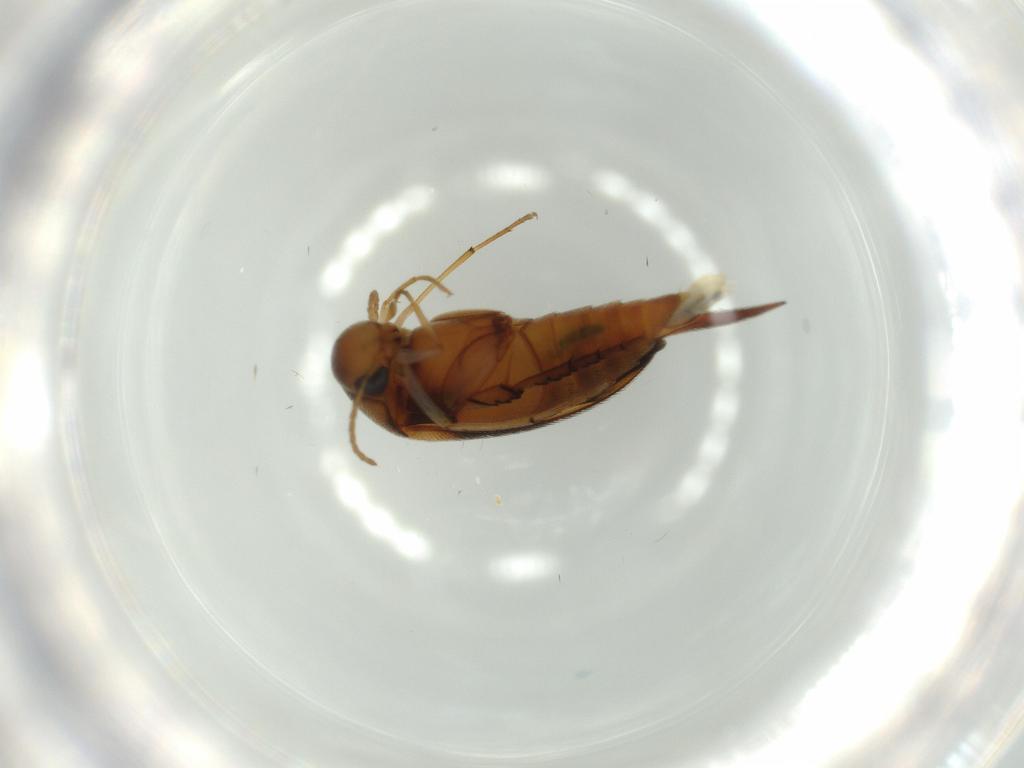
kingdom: Animalia
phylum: Arthropoda
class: Insecta
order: Coleoptera
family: Mordellidae
